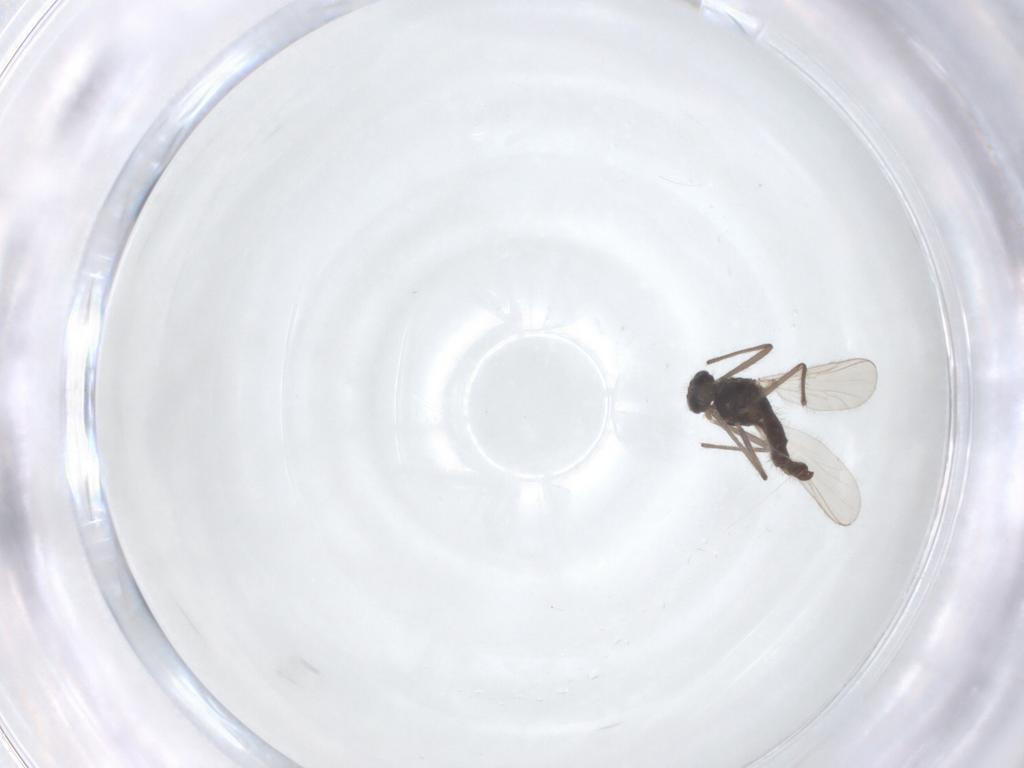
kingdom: Animalia
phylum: Arthropoda
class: Insecta
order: Diptera
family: Chironomidae
